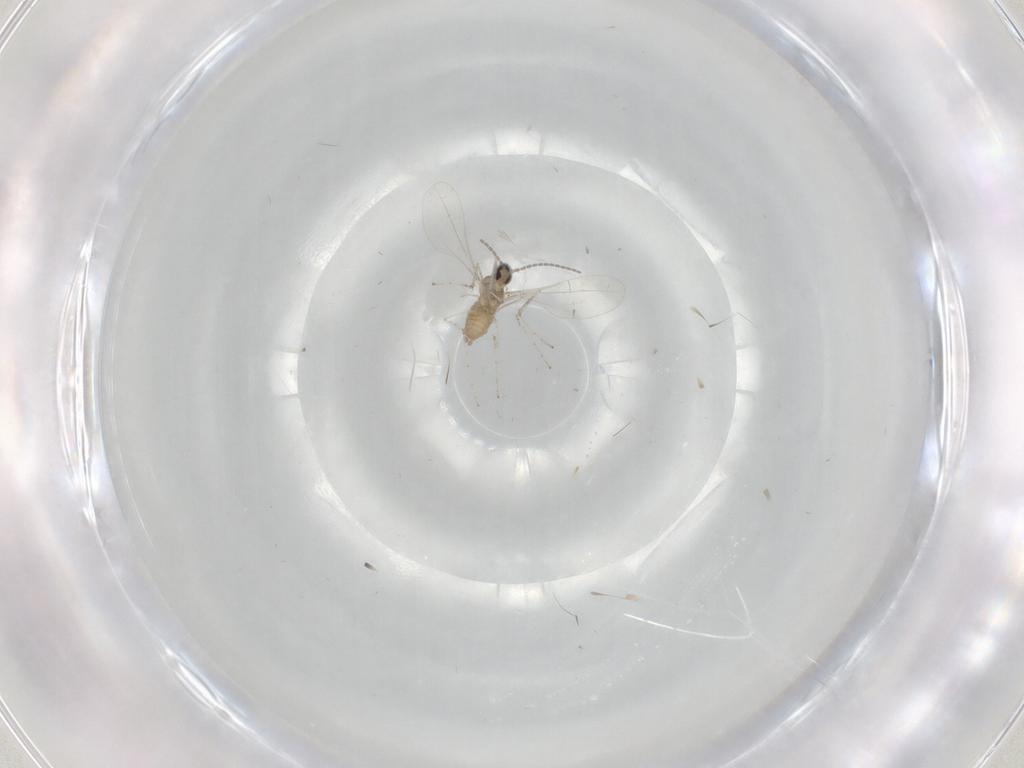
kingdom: Animalia
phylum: Arthropoda
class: Insecta
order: Diptera
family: Cecidomyiidae
